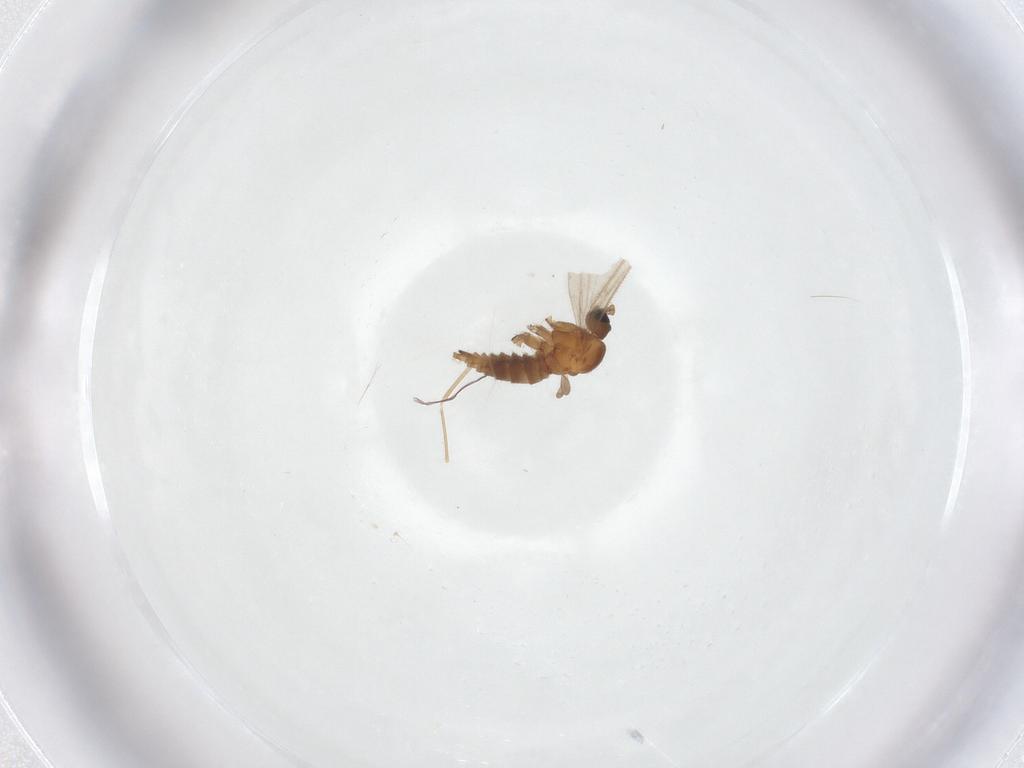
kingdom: Animalia
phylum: Arthropoda
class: Insecta
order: Diptera
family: Sciaridae
